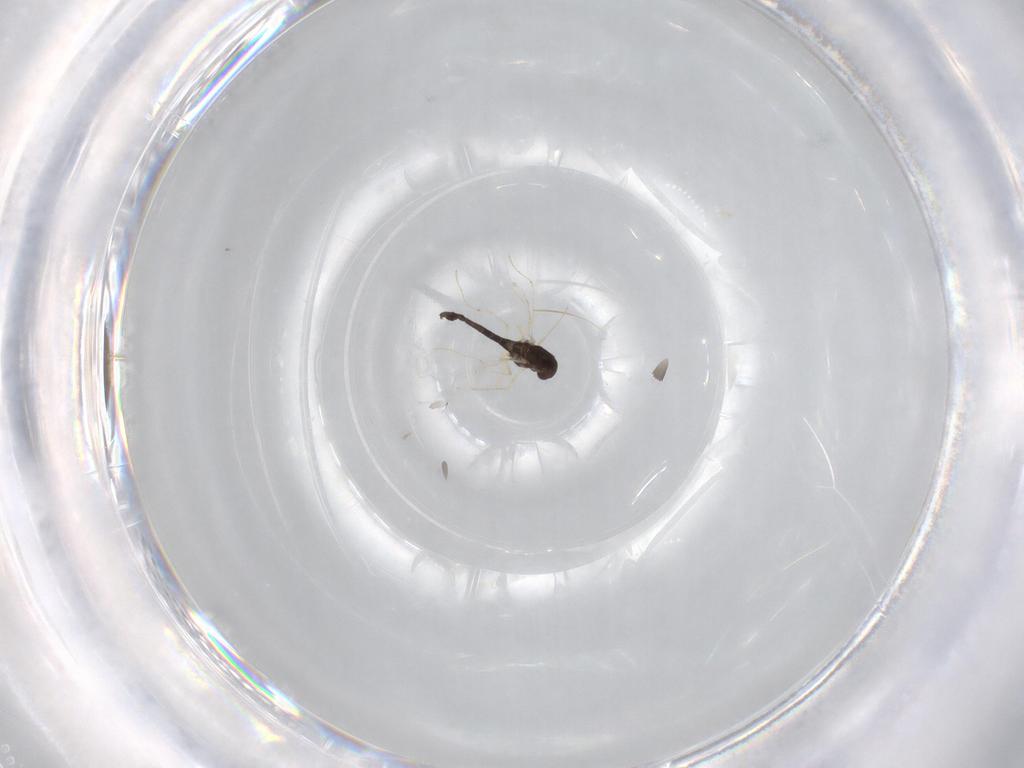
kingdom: Animalia
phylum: Arthropoda
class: Insecta
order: Diptera
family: Chironomidae
